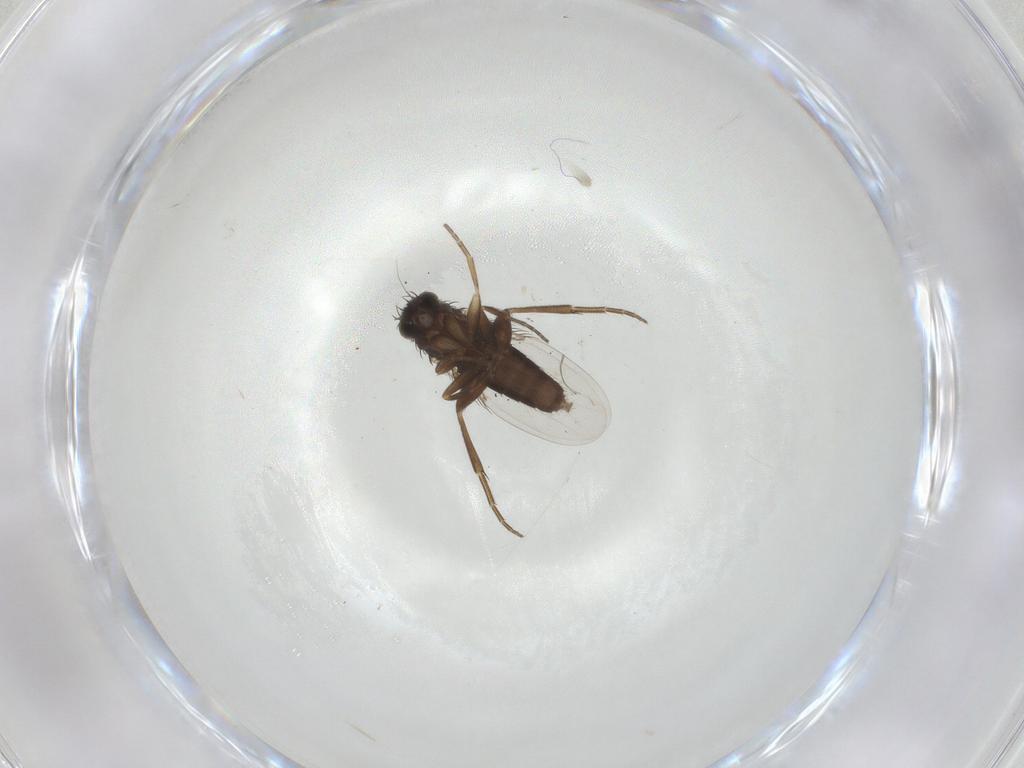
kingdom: Animalia
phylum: Arthropoda
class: Insecta
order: Diptera
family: Phoridae
